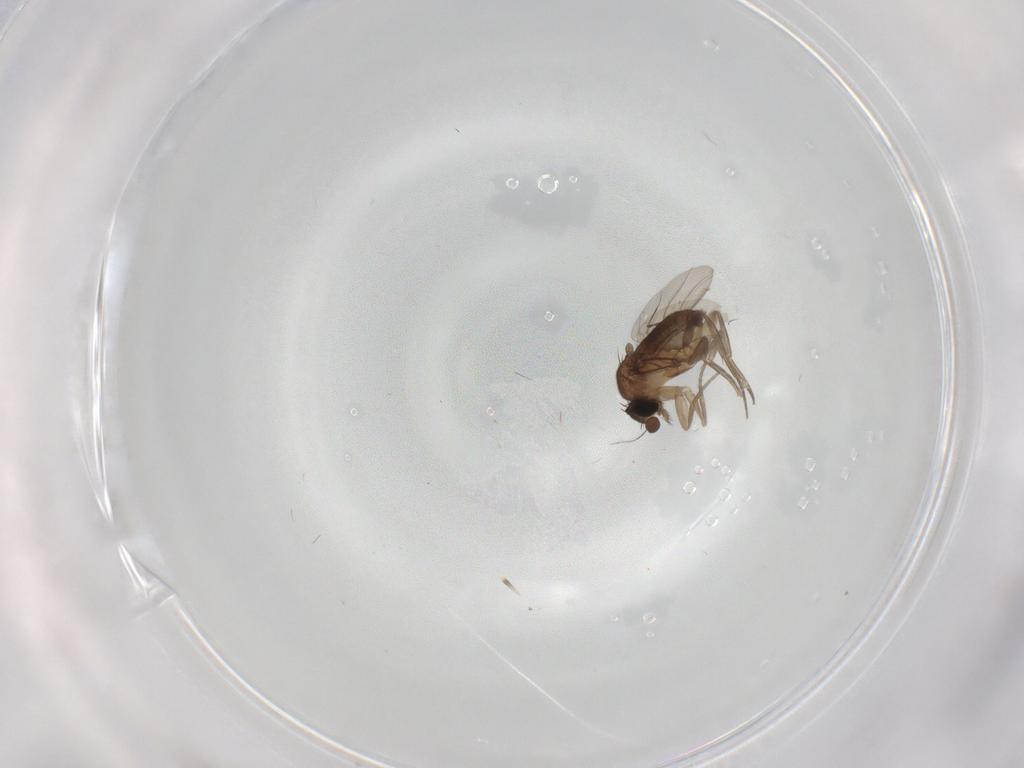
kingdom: Animalia
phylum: Arthropoda
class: Insecta
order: Diptera
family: Phoridae
